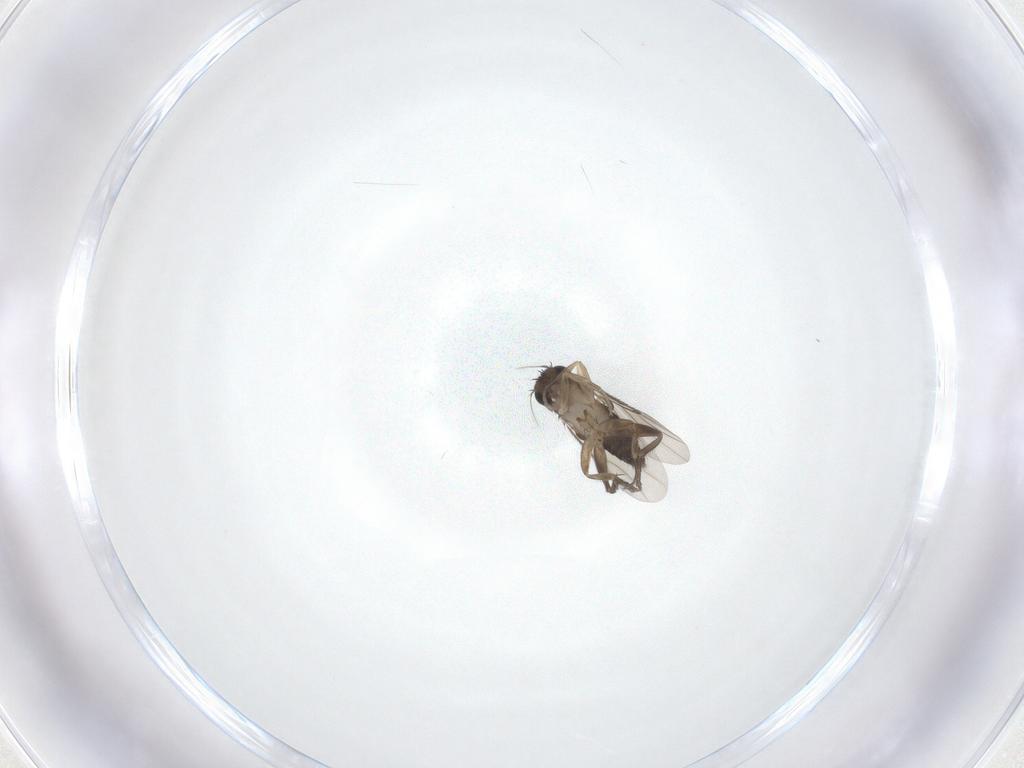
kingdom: Animalia
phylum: Arthropoda
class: Insecta
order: Diptera
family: Phoridae
